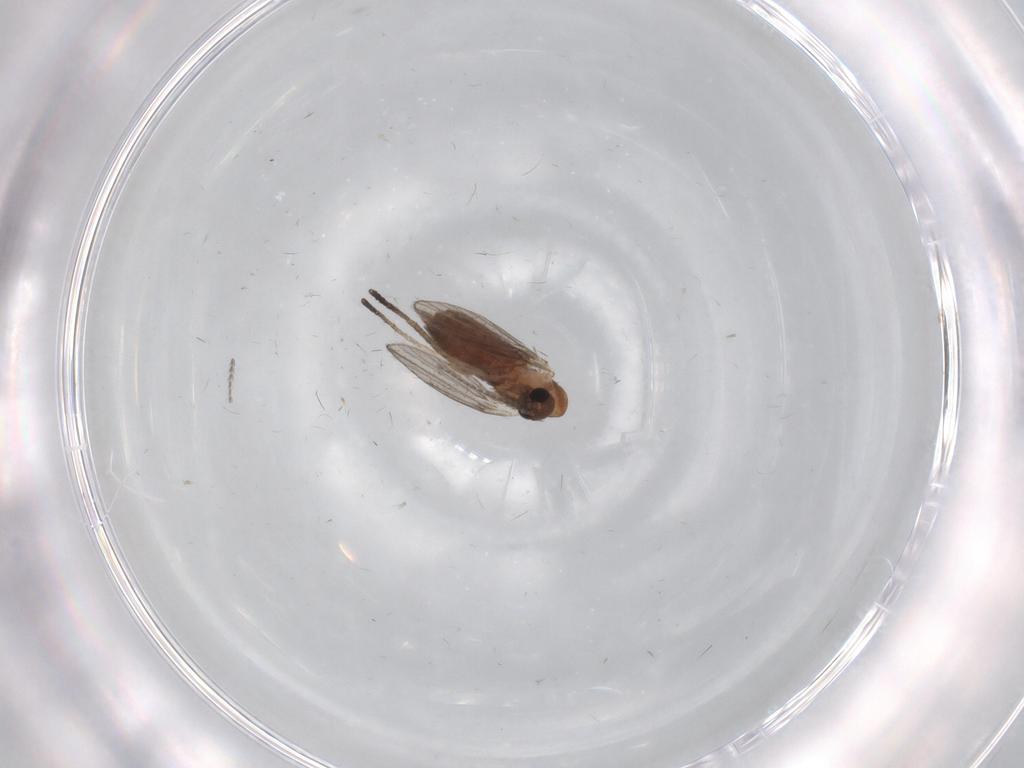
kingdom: Animalia
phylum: Arthropoda
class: Insecta
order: Diptera
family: Psychodidae
